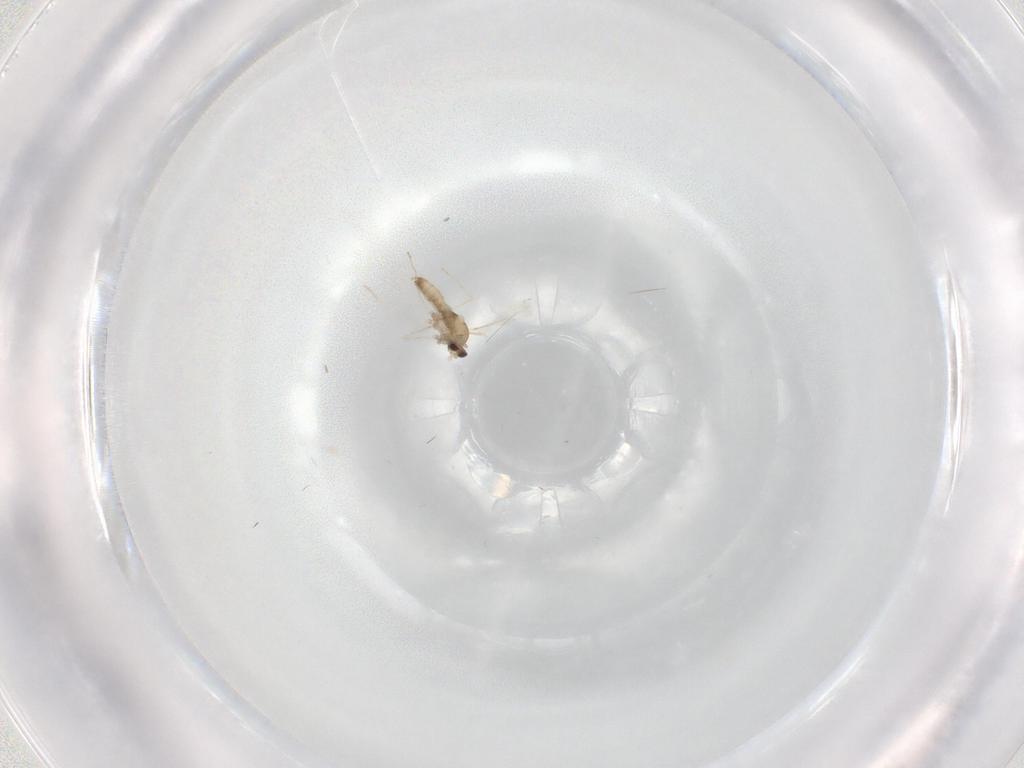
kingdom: Animalia
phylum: Arthropoda
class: Insecta
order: Diptera
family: Cecidomyiidae
